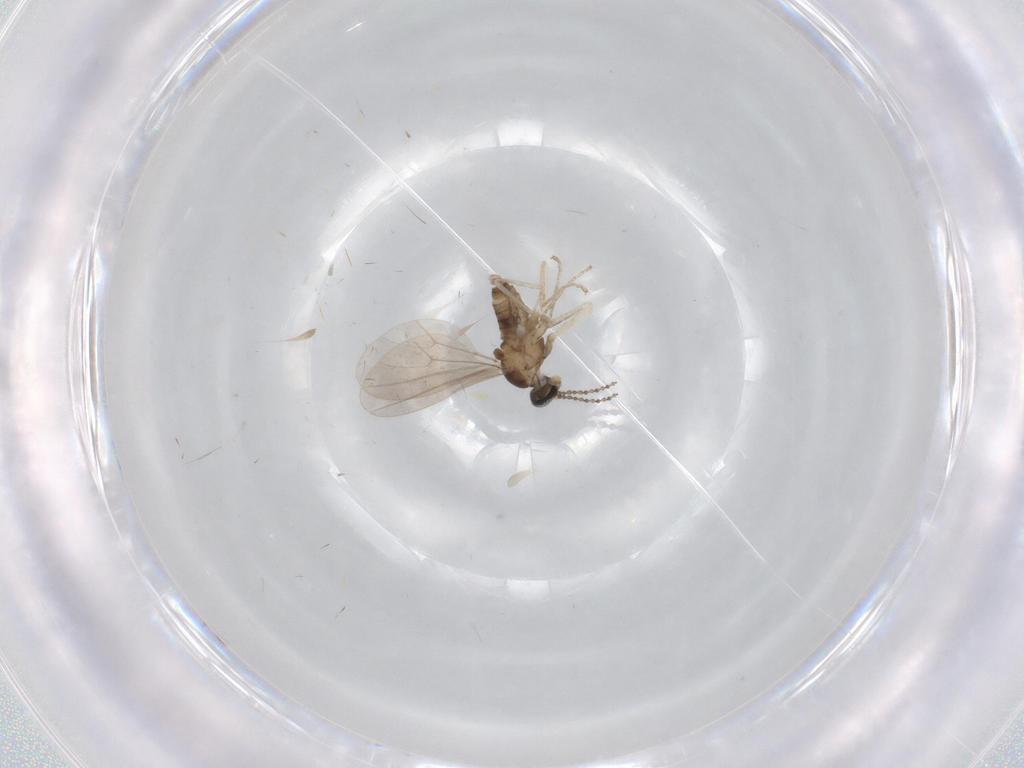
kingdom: Animalia
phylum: Arthropoda
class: Insecta
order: Diptera
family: Cecidomyiidae
